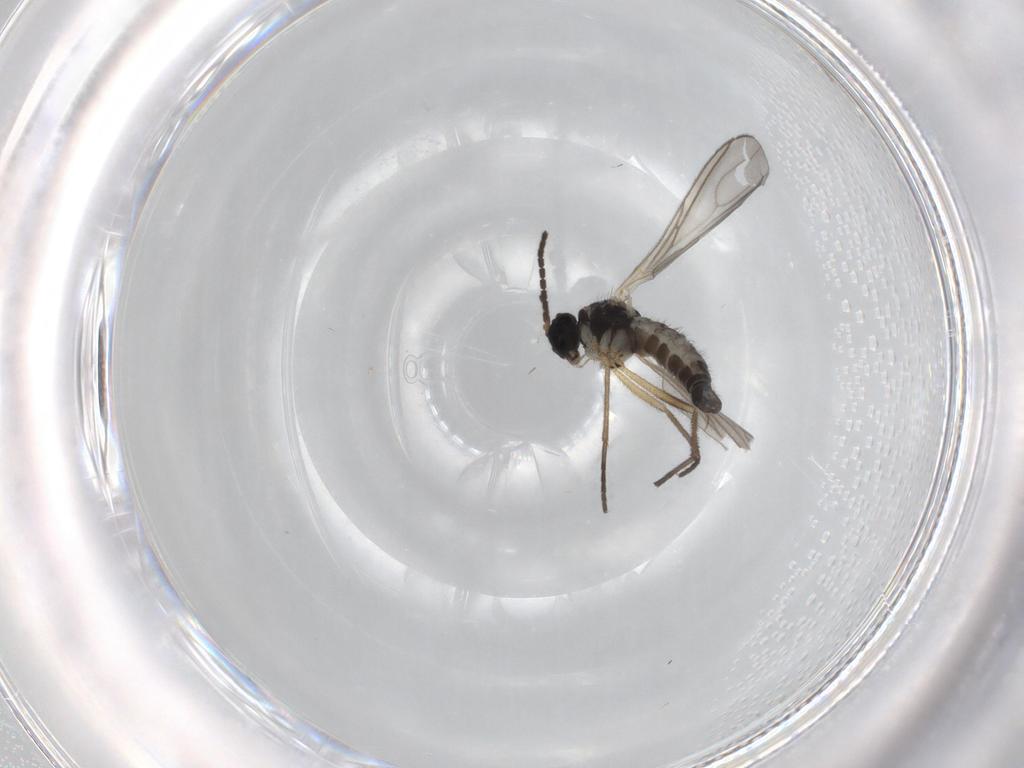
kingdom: Animalia
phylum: Arthropoda
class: Insecta
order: Diptera
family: Sciaridae
